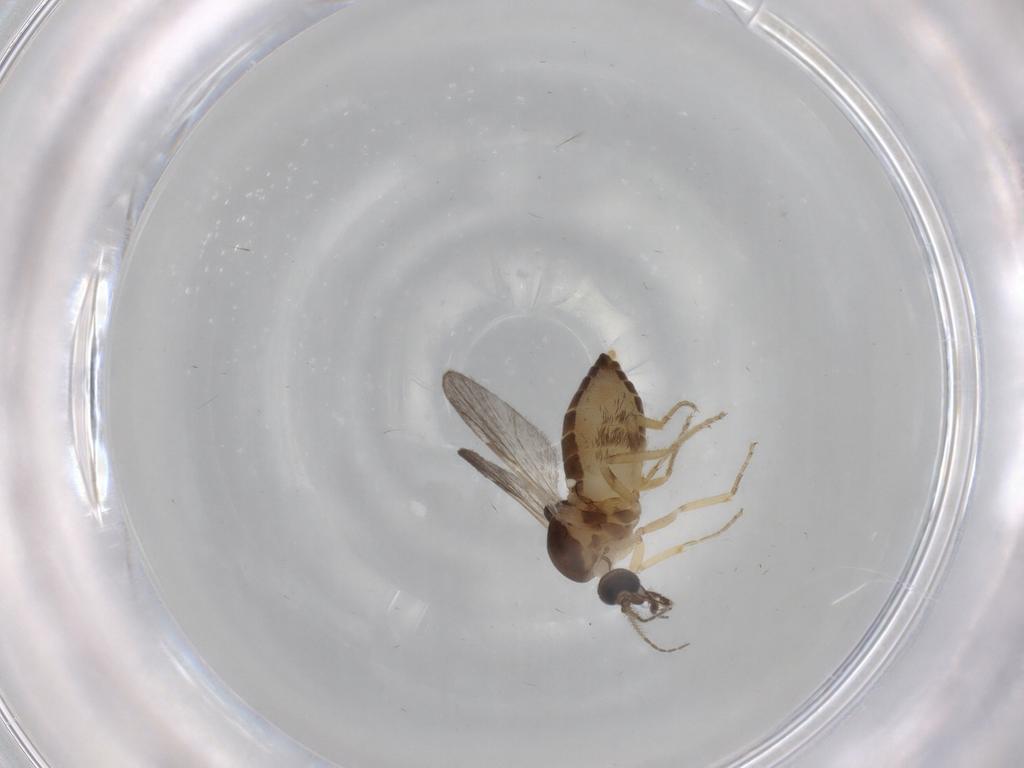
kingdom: Animalia
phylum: Arthropoda
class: Insecta
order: Diptera
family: Ceratopogonidae
